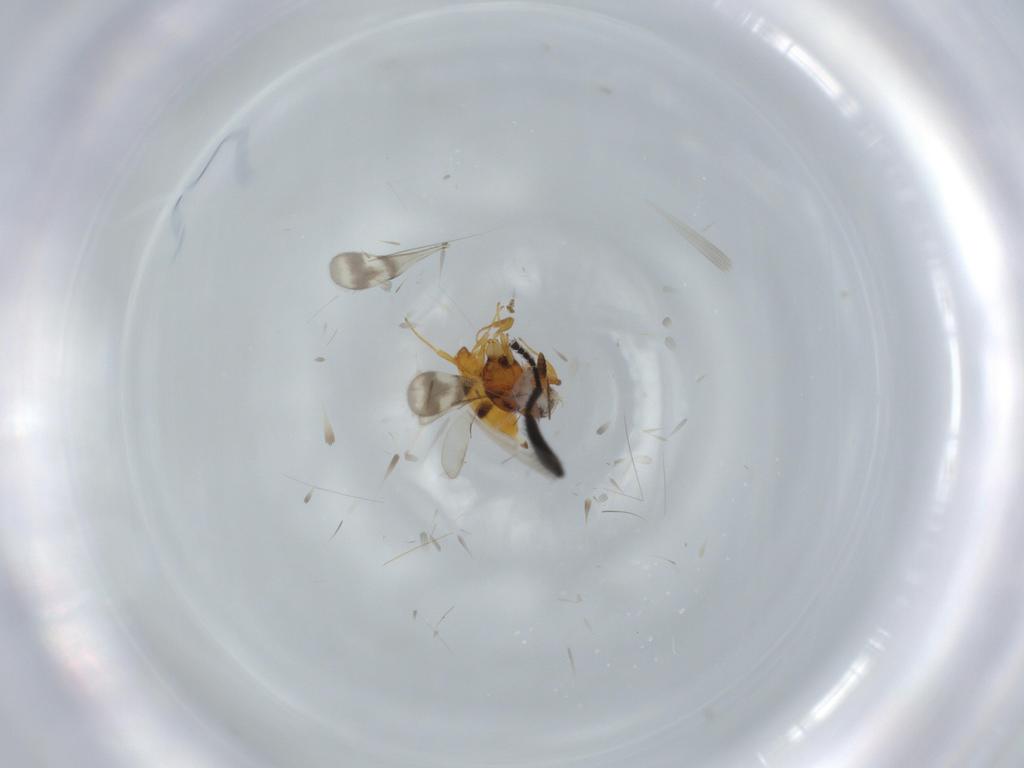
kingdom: Animalia
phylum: Arthropoda
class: Insecta
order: Hymenoptera
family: Scelionidae
